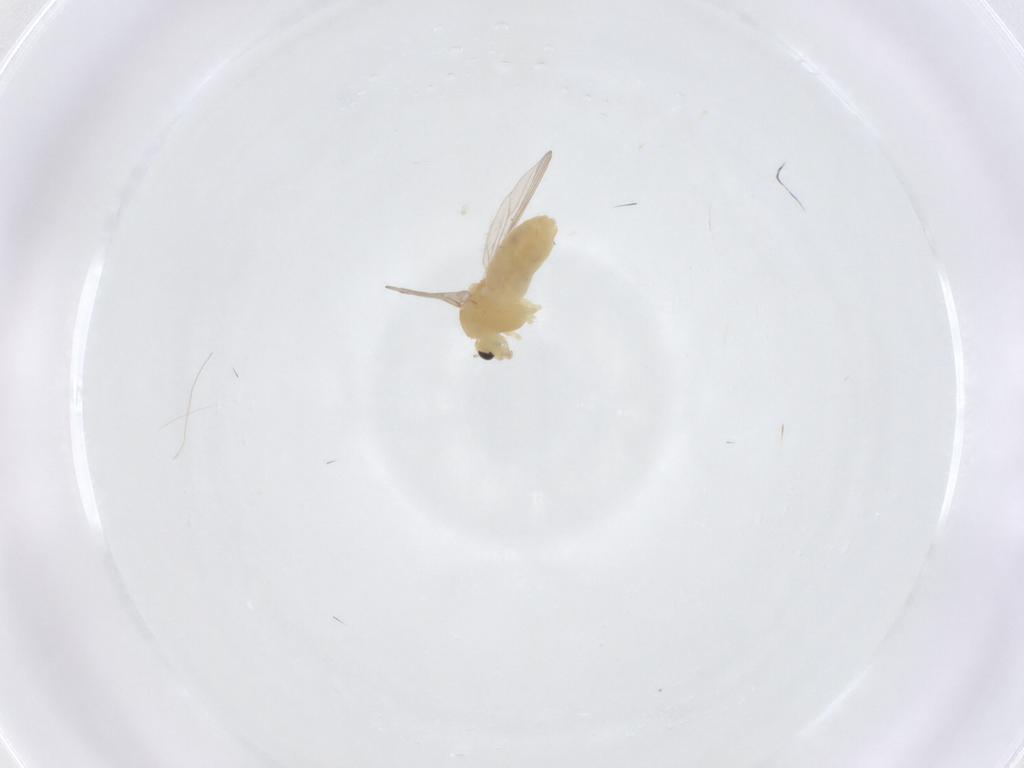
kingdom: Animalia
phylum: Arthropoda
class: Insecta
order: Diptera
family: Chironomidae
